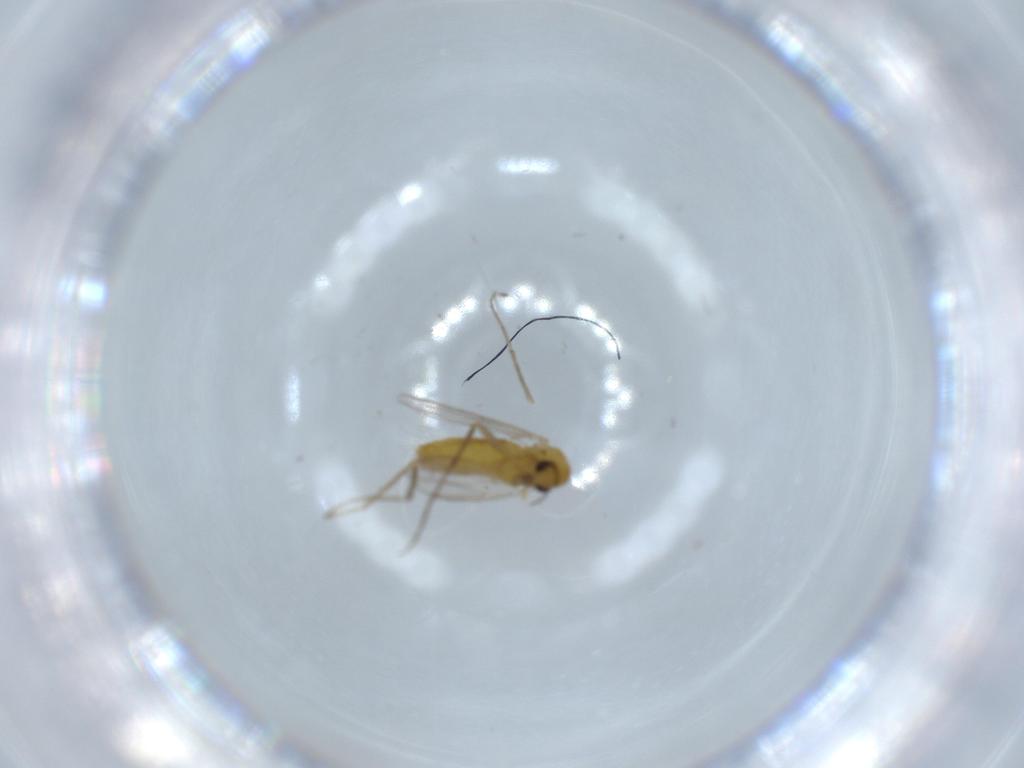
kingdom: Animalia
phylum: Arthropoda
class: Insecta
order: Diptera
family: Chironomidae
